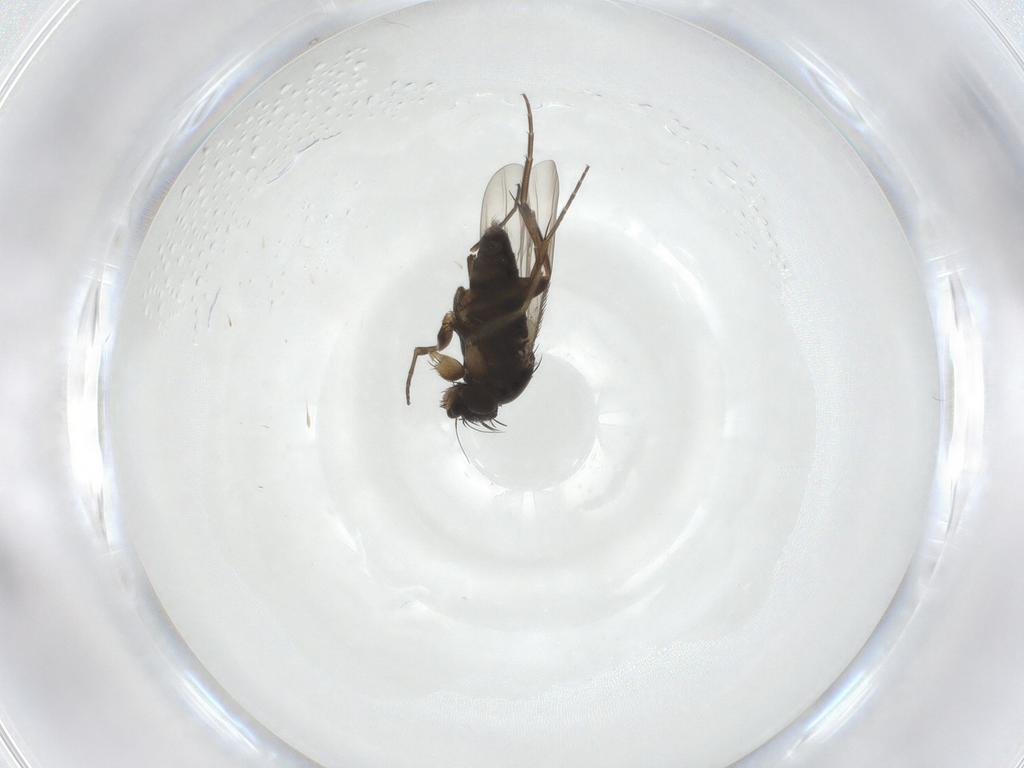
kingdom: Animalia
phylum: Arthropoda
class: Insecta
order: Diptera
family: Phoridae
